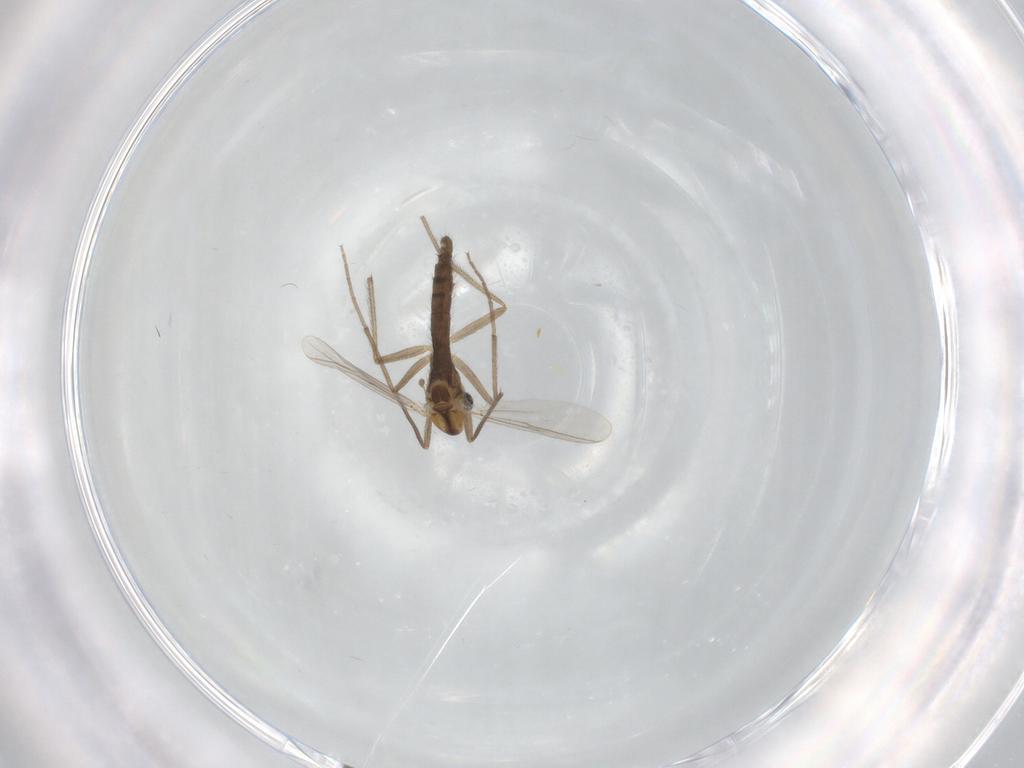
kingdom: Animalia
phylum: Arthropoda
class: Insecta
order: Diptera
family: Chironomidae
